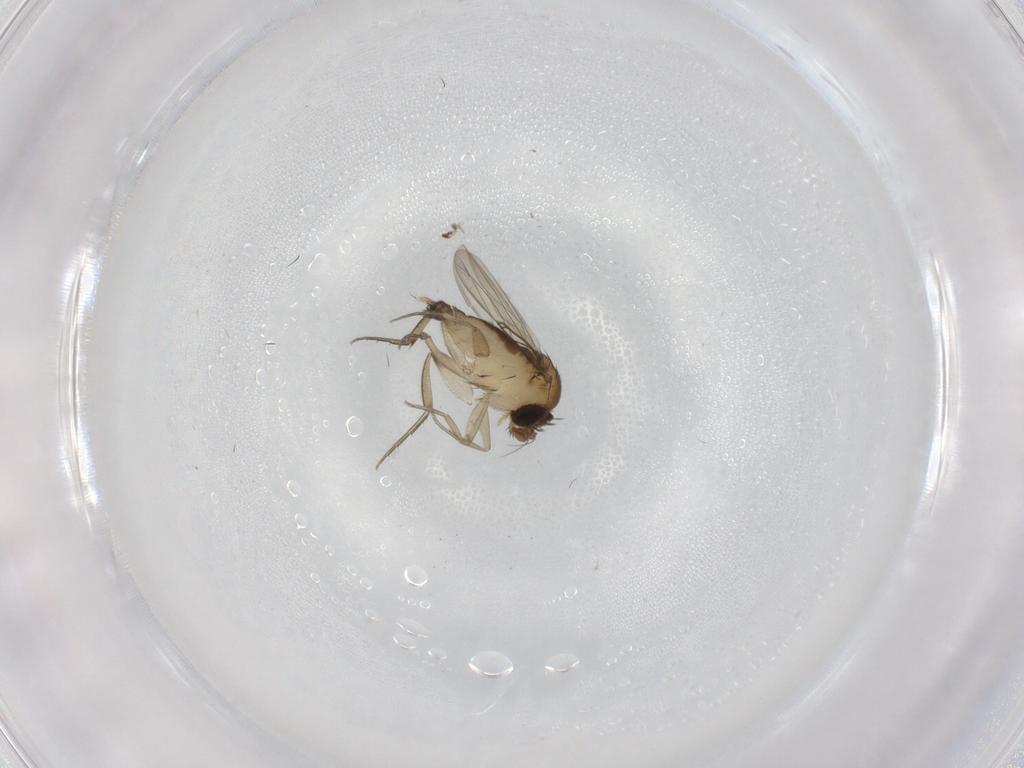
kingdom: Animalia
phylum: Arthropoda
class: Insecta
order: Diptera
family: Phoridae
